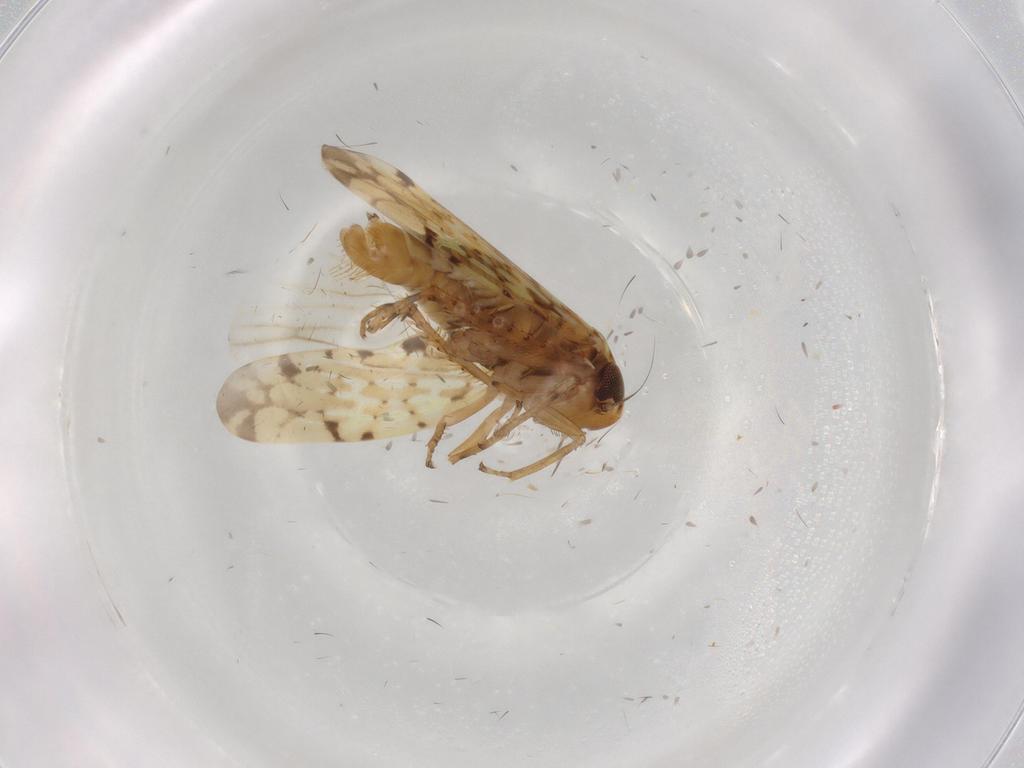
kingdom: Animalia
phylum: Arthropoda
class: Insecta
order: Hemiptera
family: Cicadellidae
